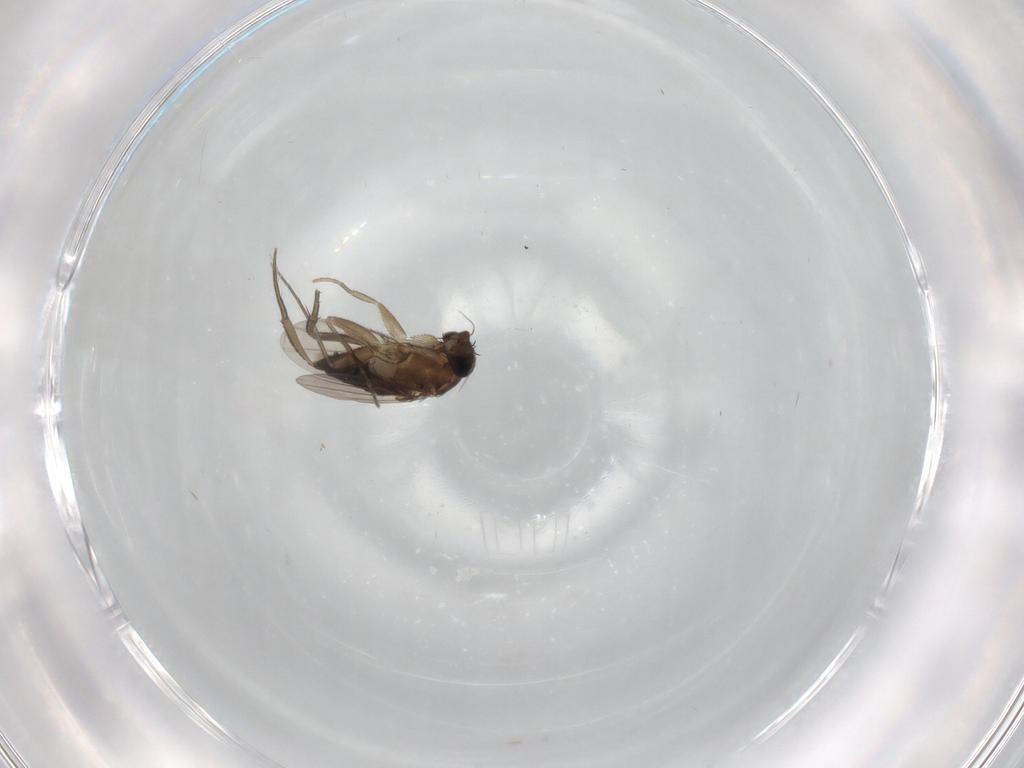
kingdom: Animalia
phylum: Arthropoda
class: Insecta
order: Diptera
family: Phoridae
